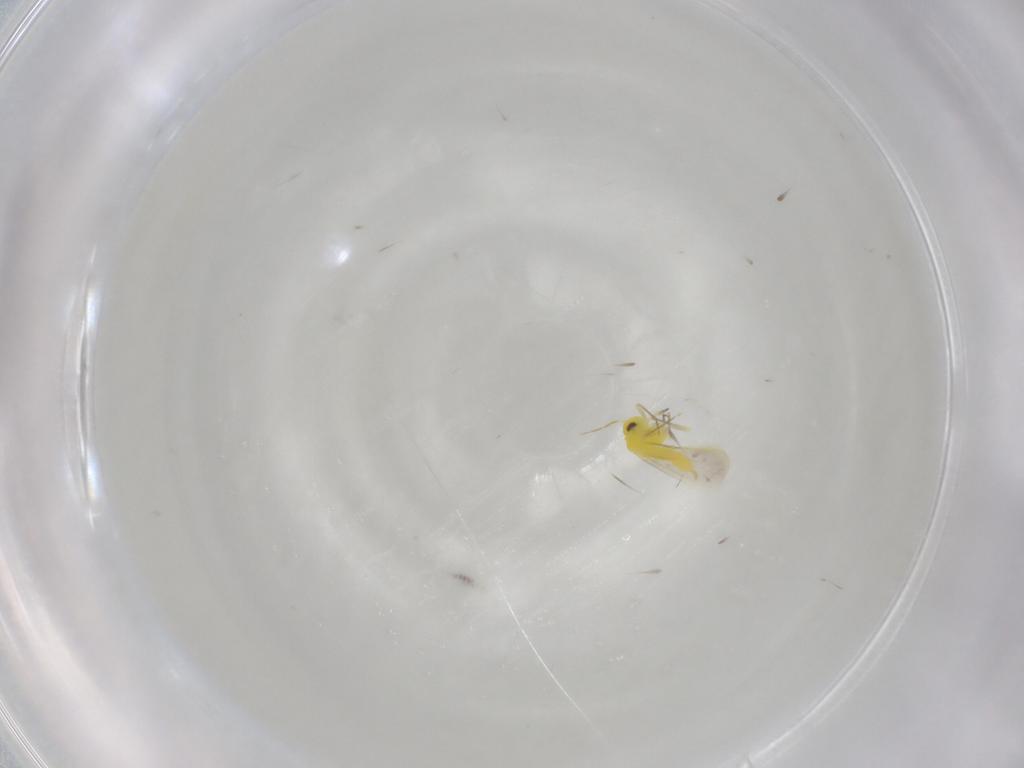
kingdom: Animalia
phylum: Arthropoda
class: Insecta
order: Hemiptera
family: Aleyrodidae
